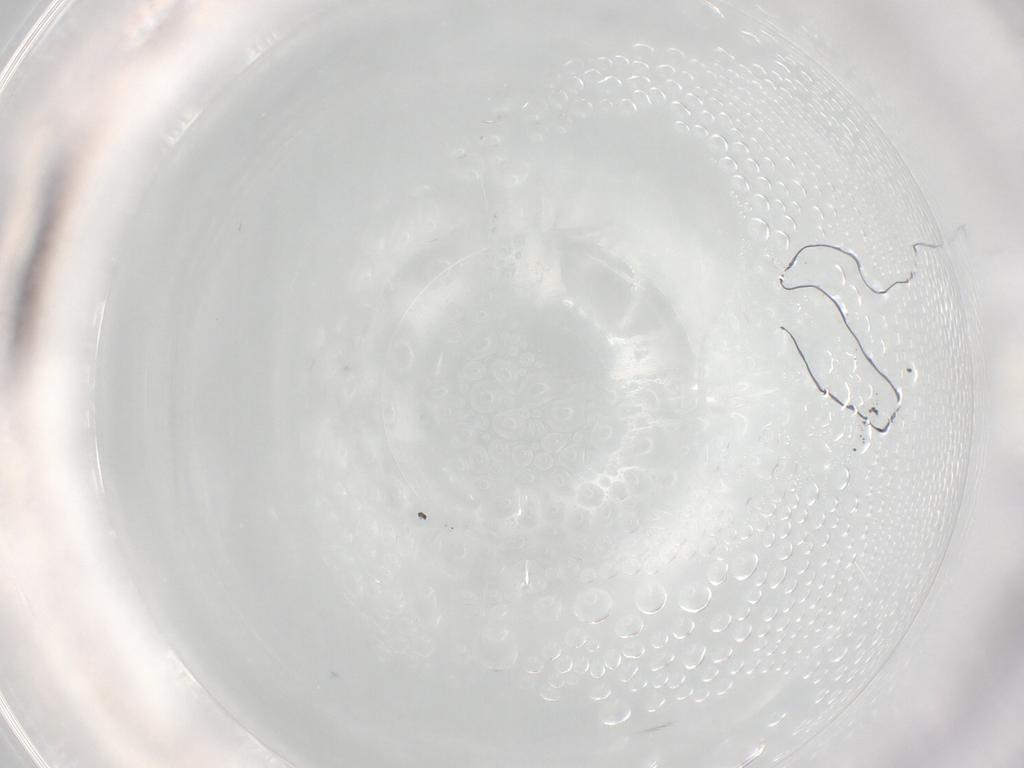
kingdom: Animalia
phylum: Arthropoda
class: Insecta
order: Diptera
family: Psychodidae
